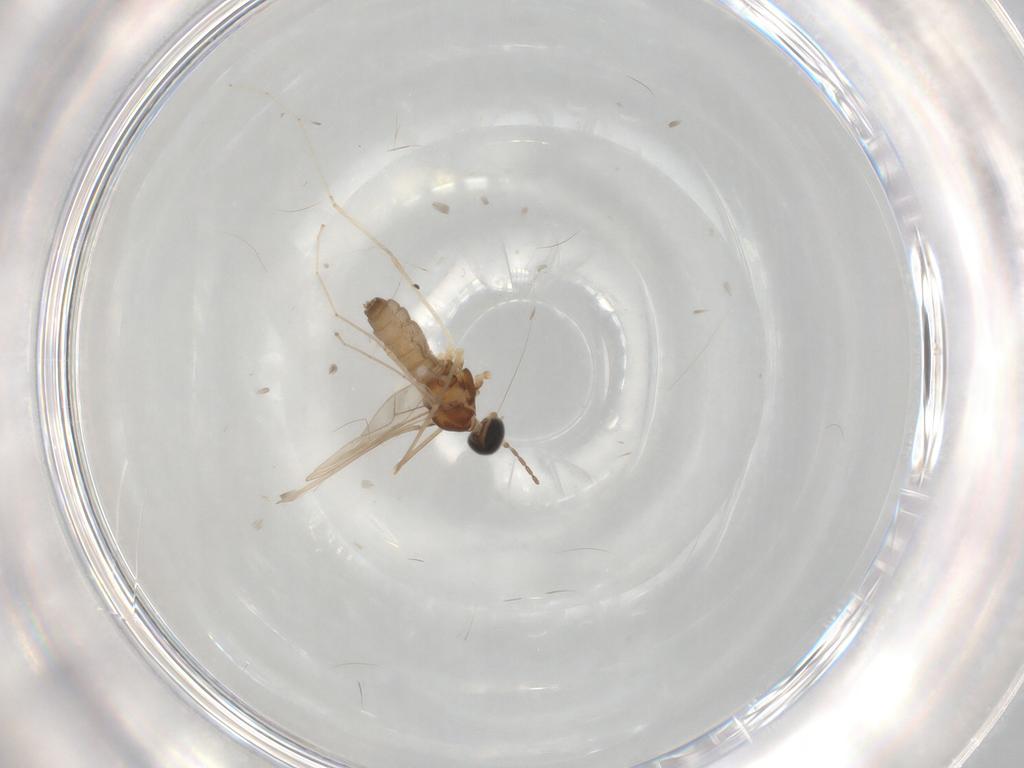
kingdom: Animalia
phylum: Arthropoda
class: Insecta
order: Diptera
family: Cecidomyiidae
